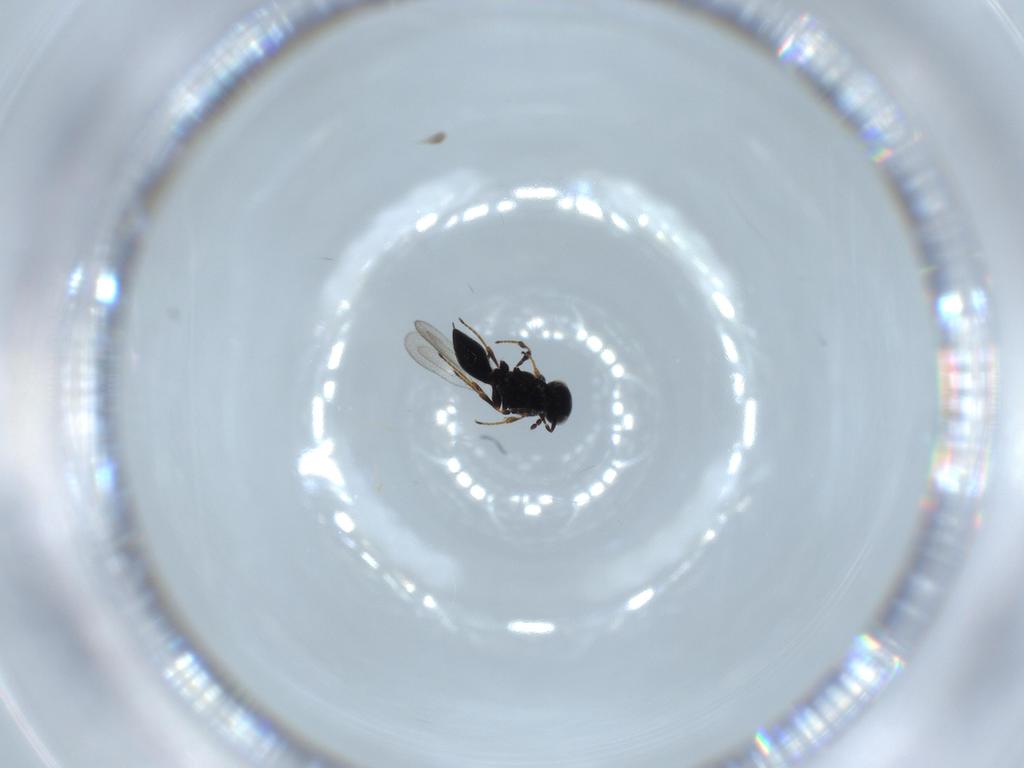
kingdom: Animalia
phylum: Arthropoda
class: Insecta
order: Hymenoptera
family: Platygastridae
